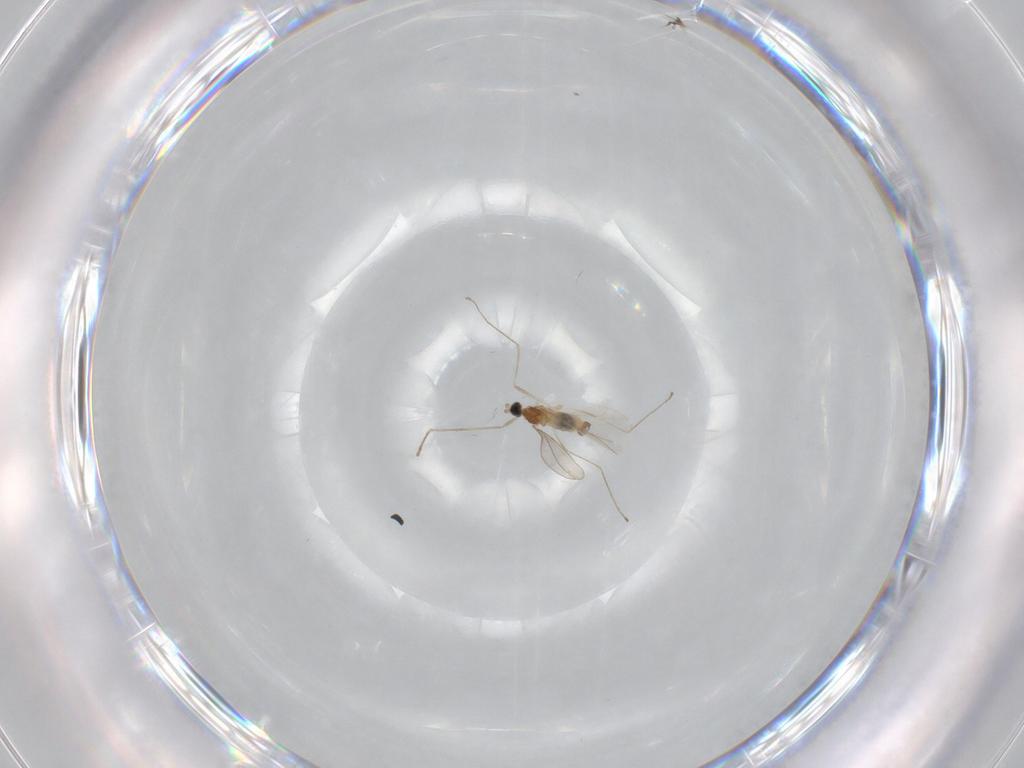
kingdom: Animalia
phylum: Arthropoda
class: Insecta
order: Diptera
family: Cecidomyiidae
